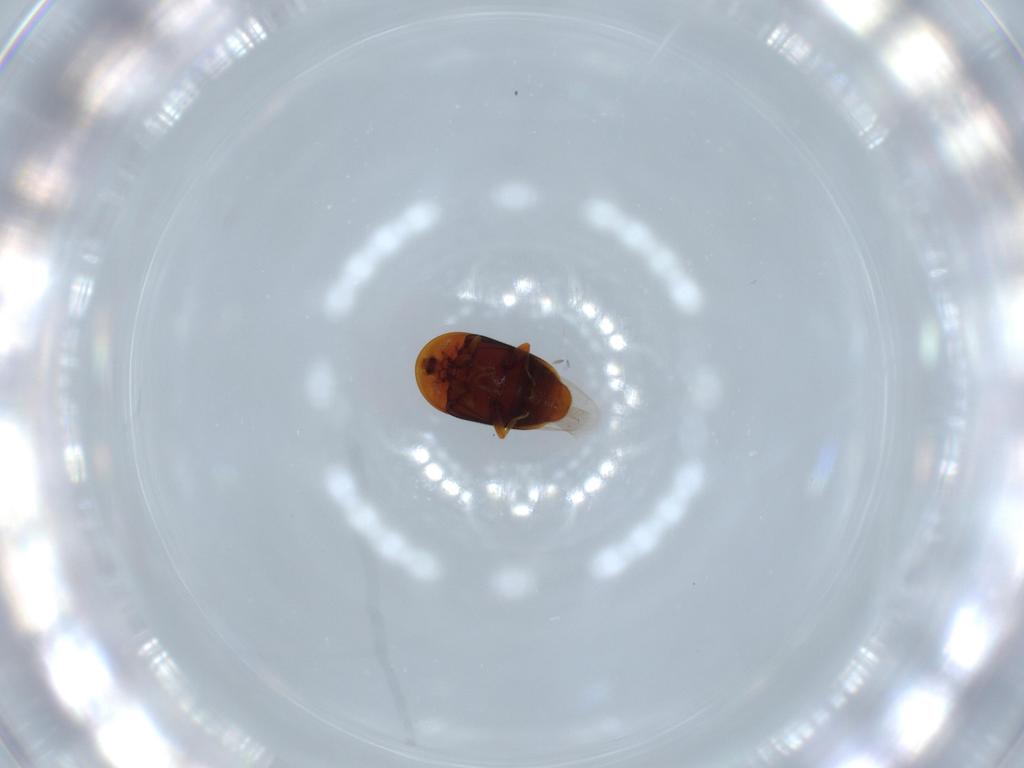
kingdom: Animalia
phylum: Arthropoda
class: Insecta
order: Coleoptera
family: Corylophidae
